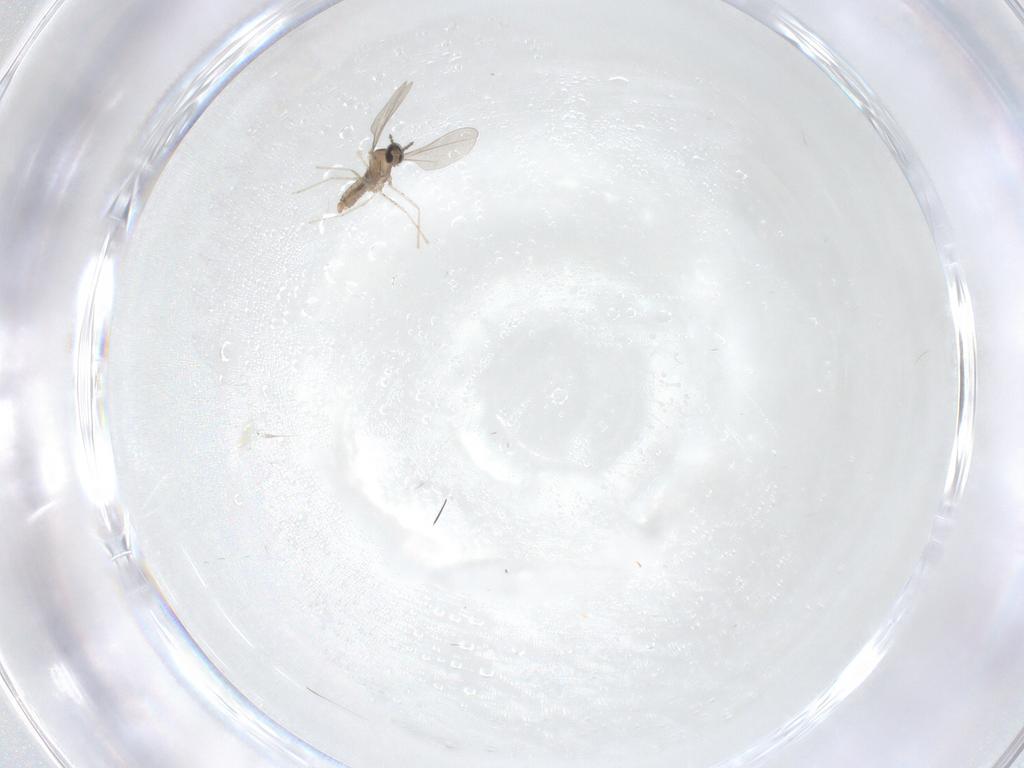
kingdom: Animalia
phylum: Arthropoda
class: Insecta
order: Diptera
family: Cecidomyiidae
